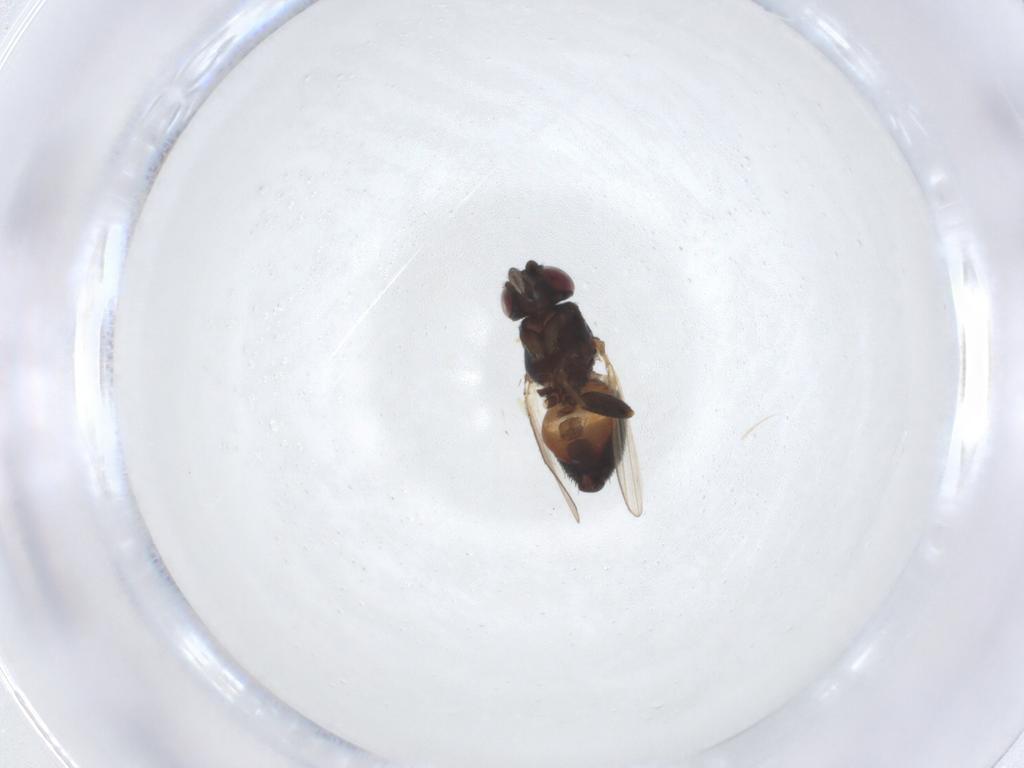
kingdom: Animalia
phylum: Arthropoda
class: Insecta
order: Diptera
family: Milichiidae
